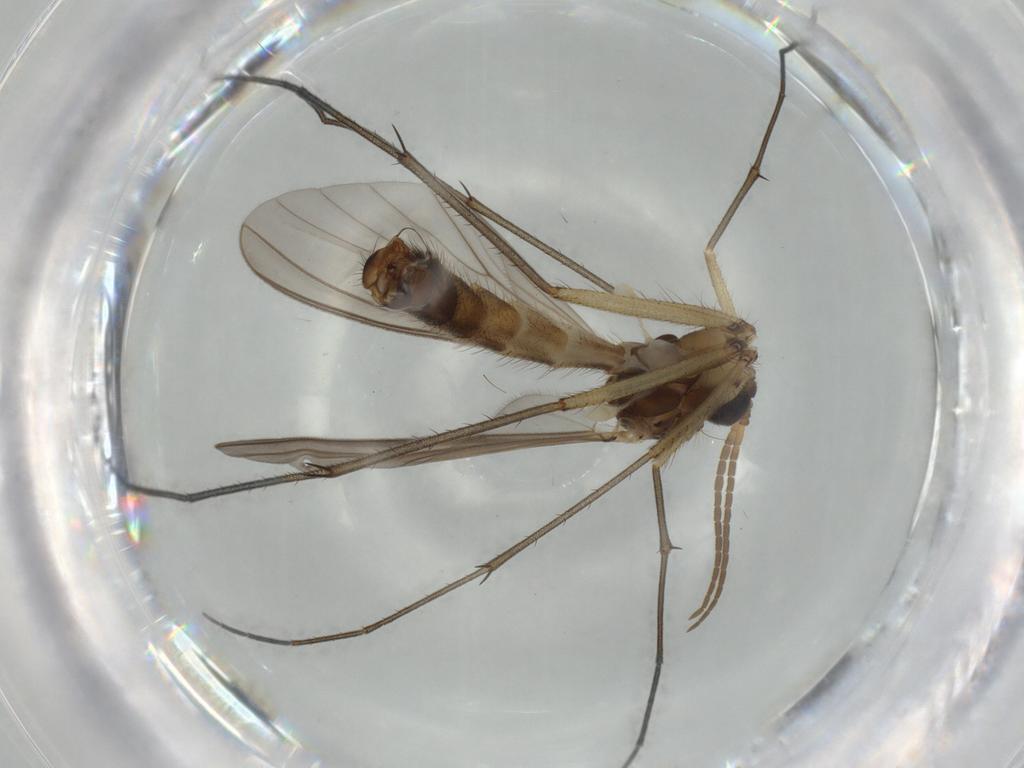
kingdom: Animalia
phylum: Arthropoda
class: Insecta
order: Diptera
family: Mycetophilidae
